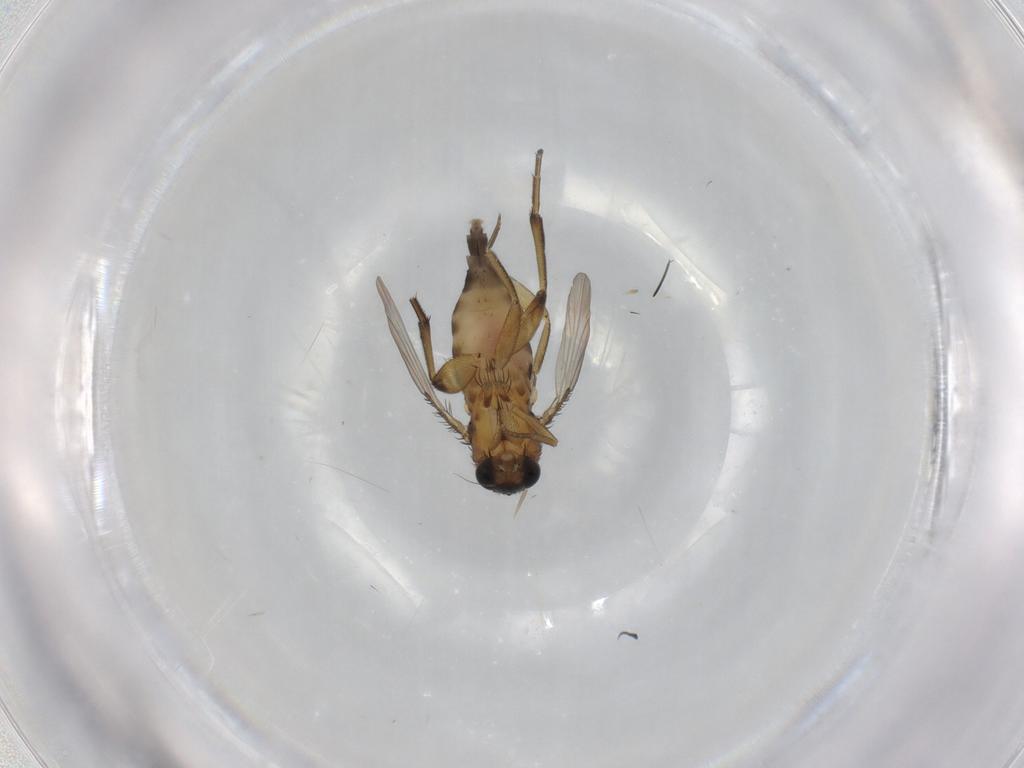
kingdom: Animalia
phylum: Arthropoda
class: Insecta
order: Diptera
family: Phoridae
